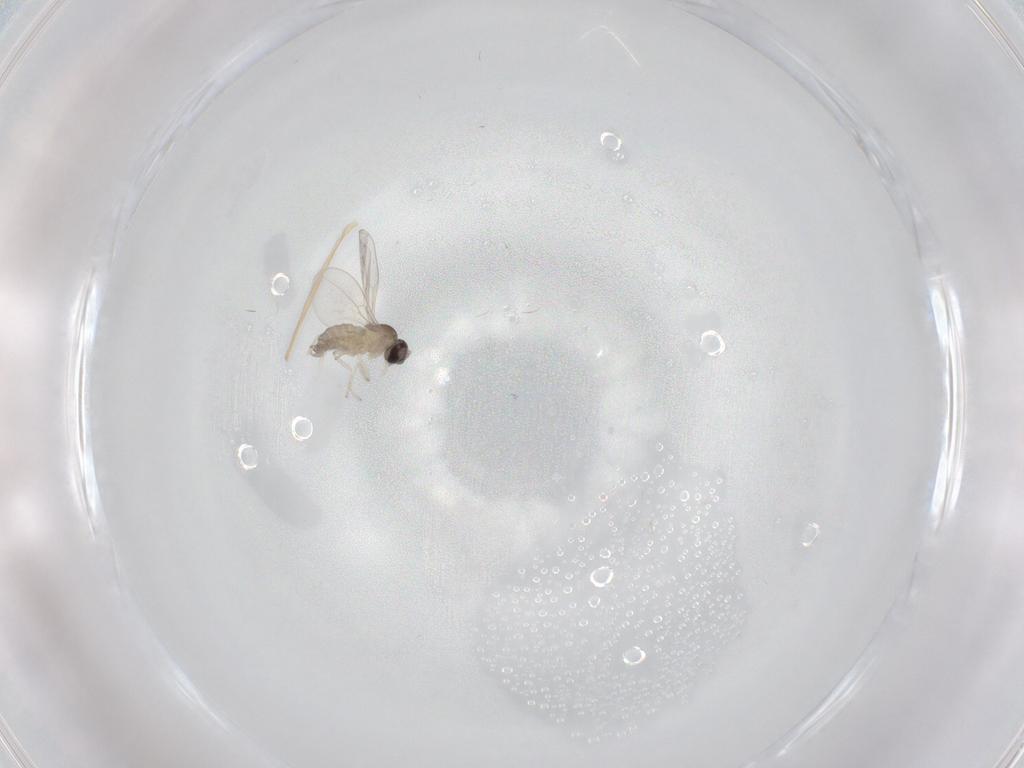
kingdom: Animalia
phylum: Arthropoda
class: Insecta
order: Diptera
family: Cecidomyiidae
